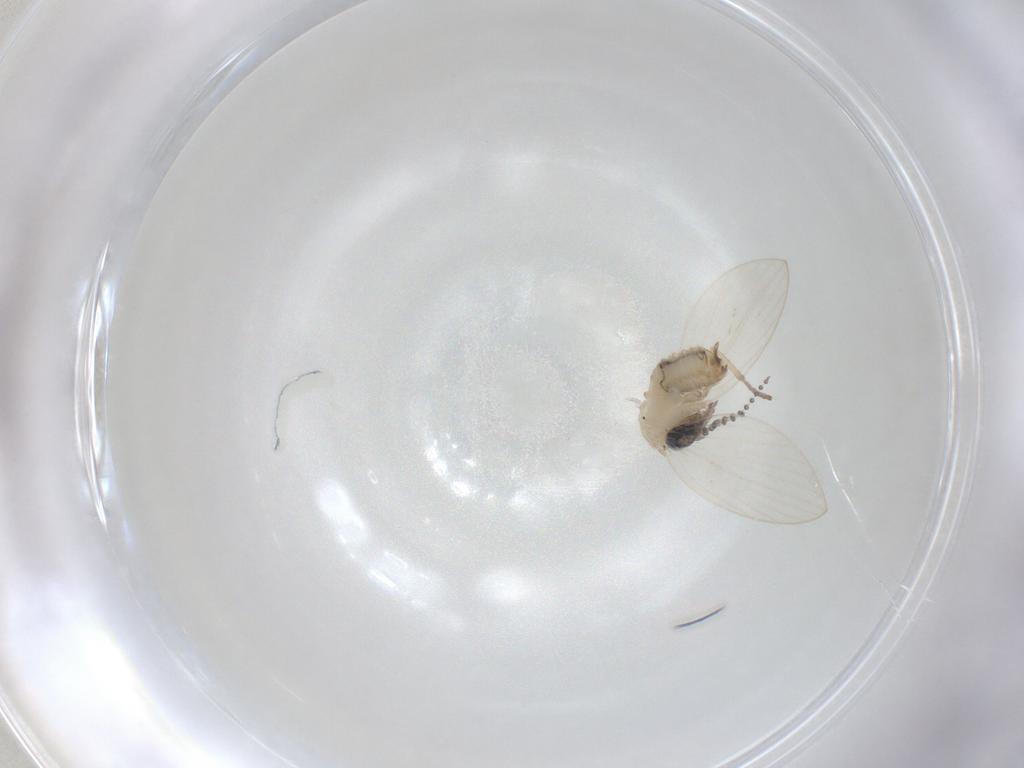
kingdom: Animalia
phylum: Arthropoda
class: Insecta
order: Diptera
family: Psychodidae
